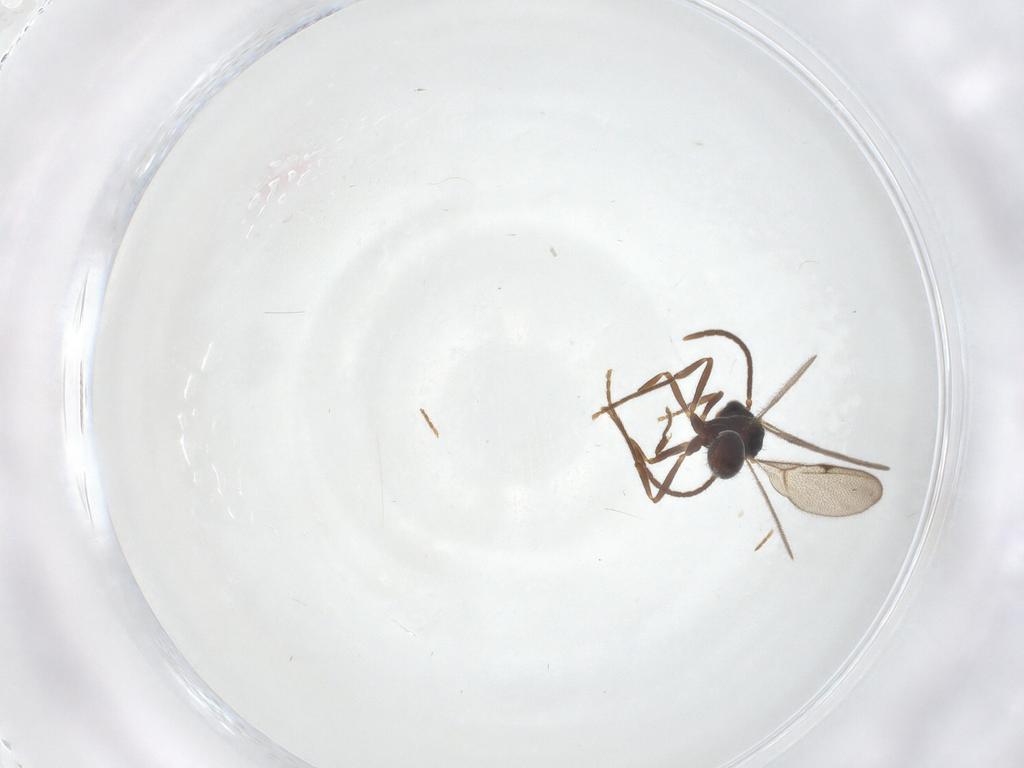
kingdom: Animalia
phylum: Arthropoda
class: Insecta
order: Hymenoptera
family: Formicidae
